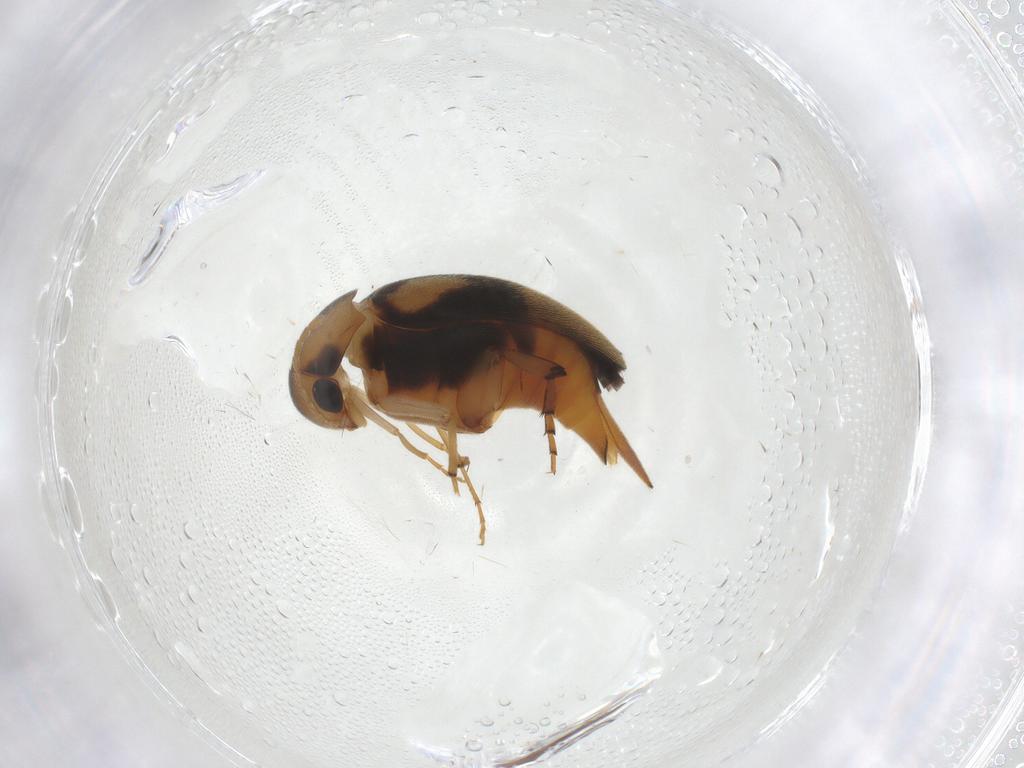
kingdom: Animalia
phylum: Arthropoda
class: Insecta
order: Coleoptera
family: Mordellidae
